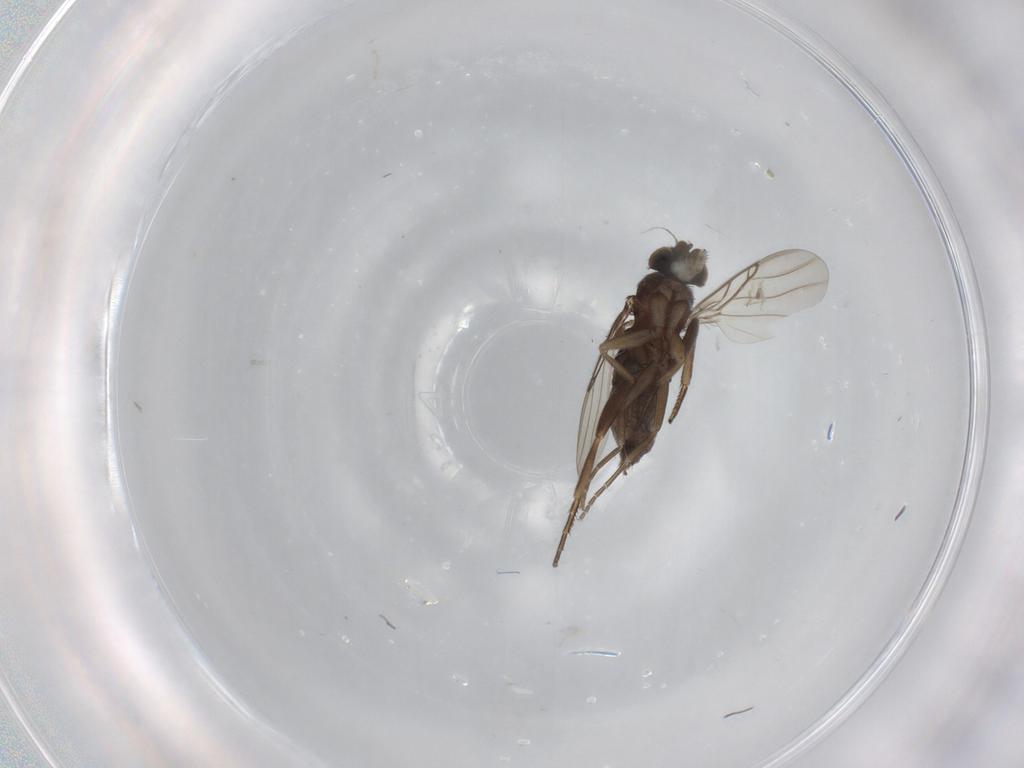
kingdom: Animalia
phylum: Arthropoda
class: Insecta
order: Diptera
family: Phoridae
